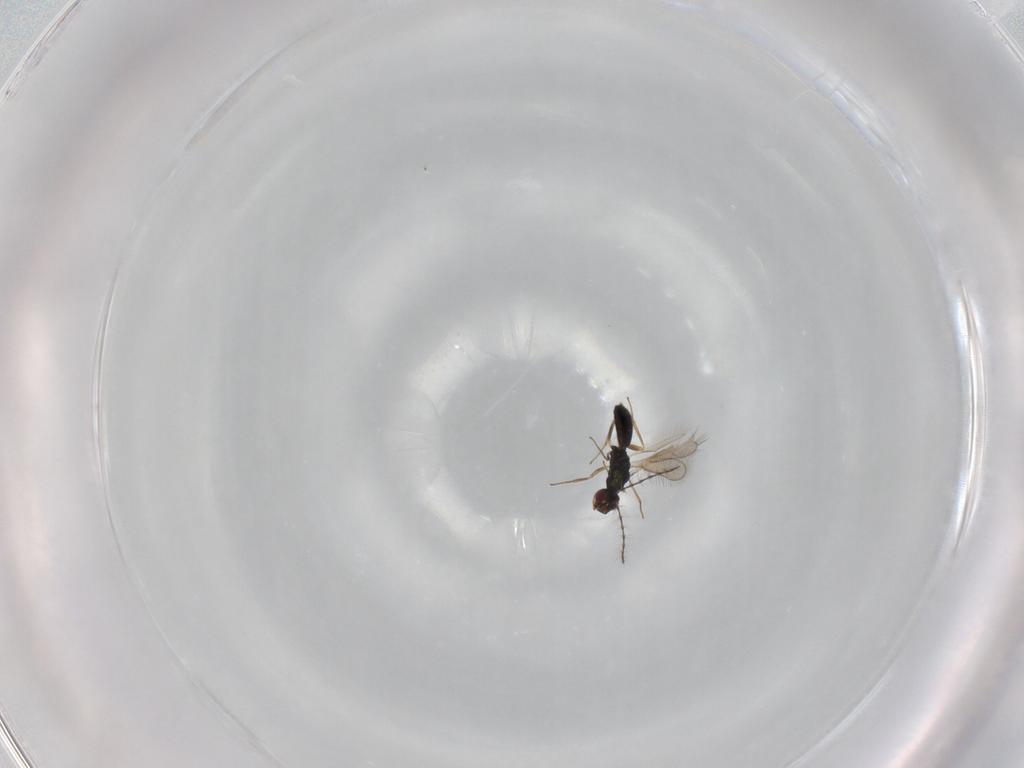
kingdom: Animalia
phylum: Arthropoda
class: Insecta
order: Hymenoptera
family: Pteromalidae
